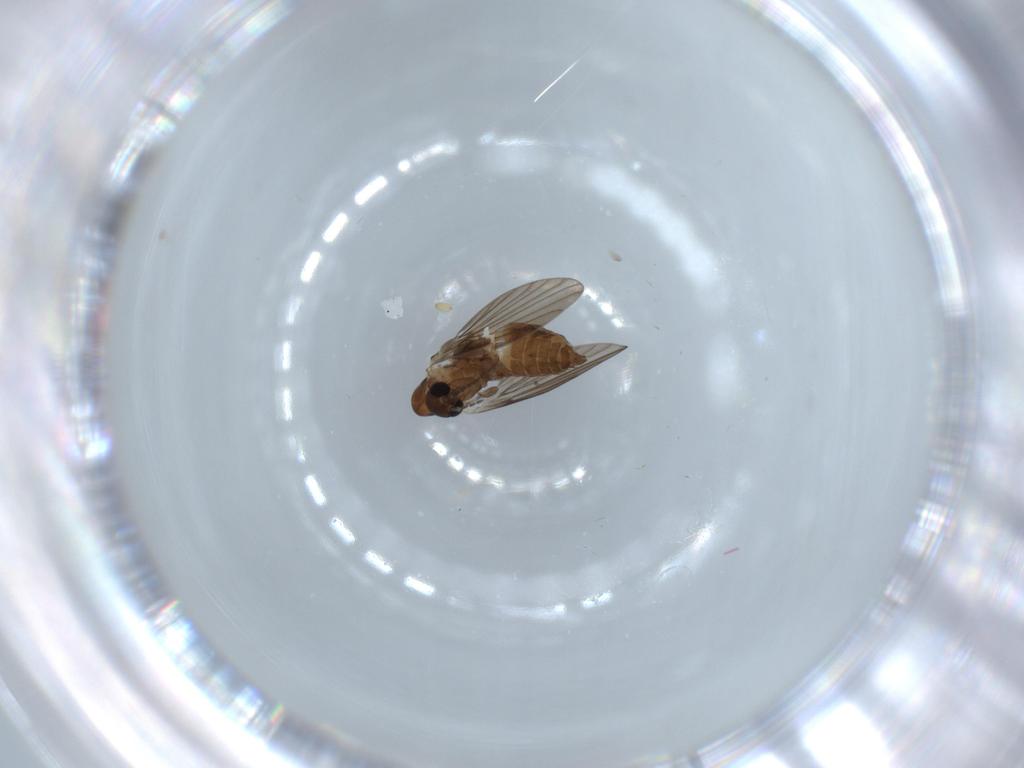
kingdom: Animalia
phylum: Arthropoda
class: Insecta
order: Diptera
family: Psychodidae
